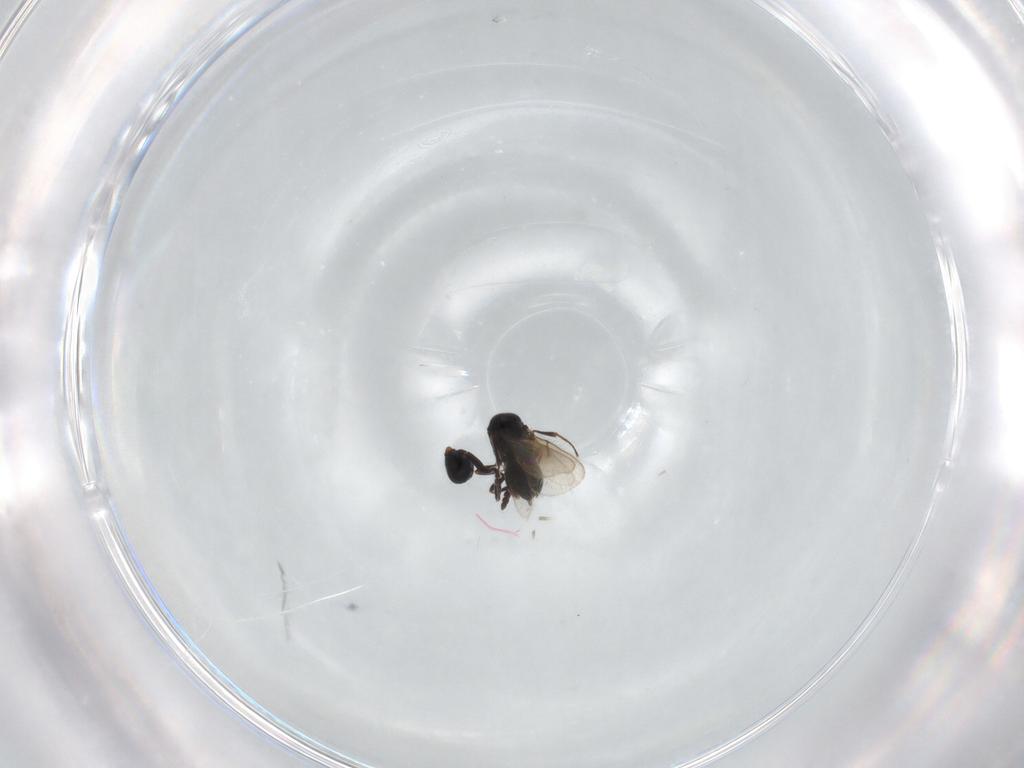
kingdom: Animalia
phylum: Arthropoda
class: Insecta
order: Hymenoptera
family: Scelionidae
